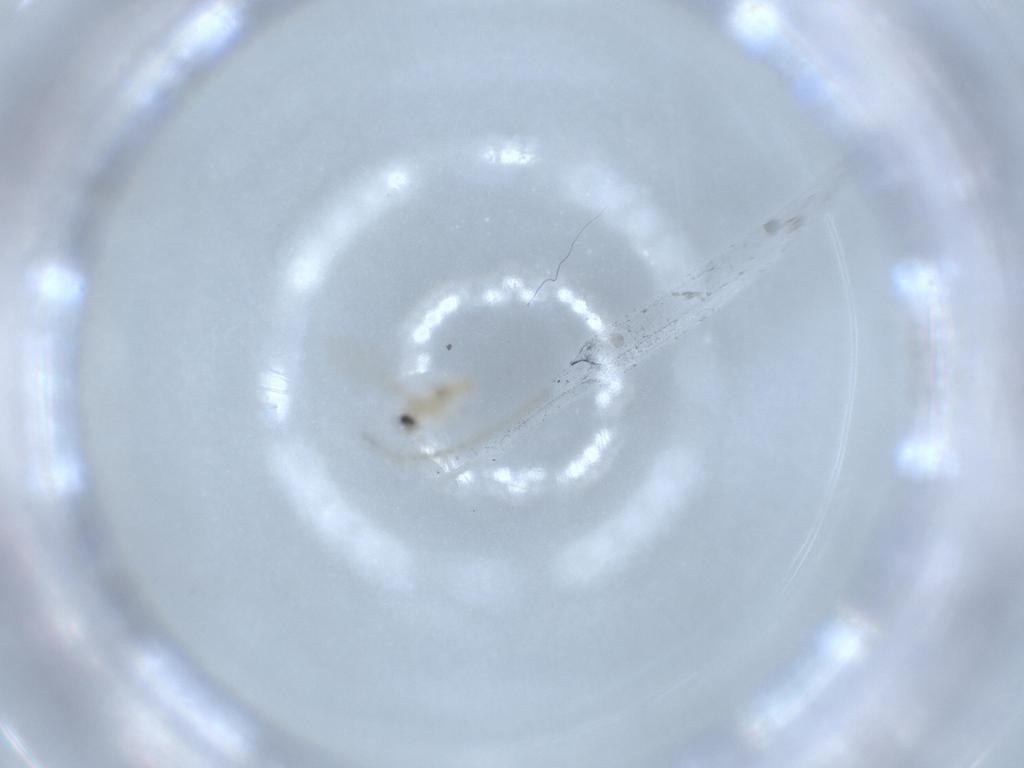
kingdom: Animalia
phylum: Arthropoda
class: Insecta
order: Diptera
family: Cecidomyiidae
